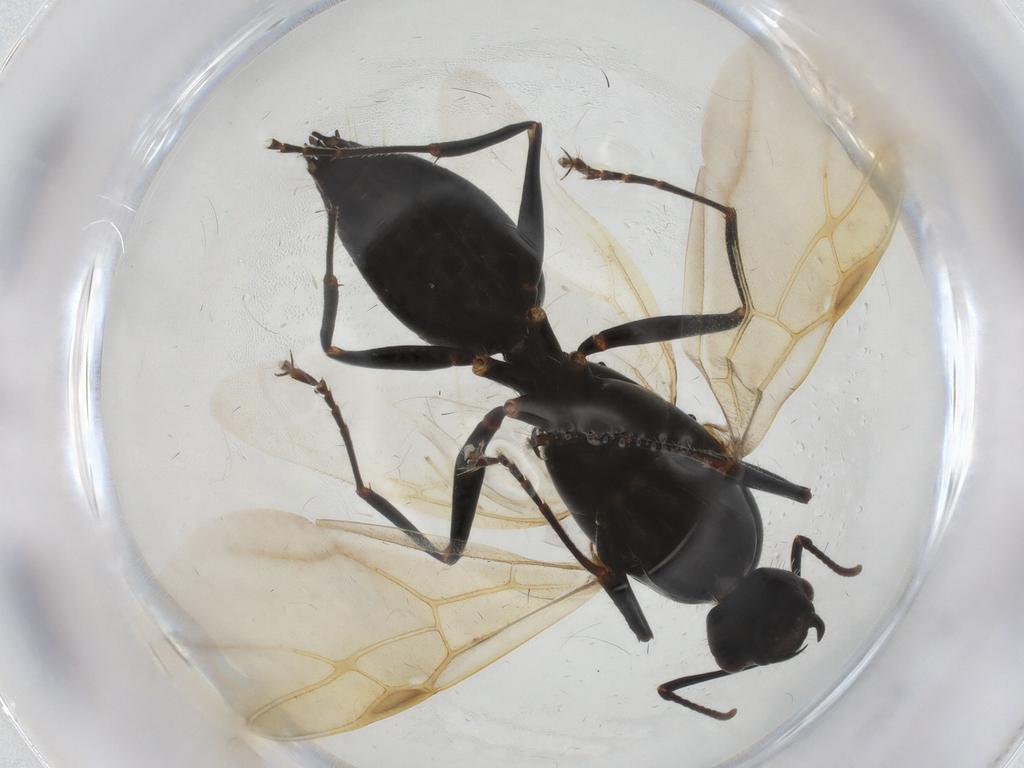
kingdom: Animalia
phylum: Arthropoda
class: Insecta
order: Hymenoptera
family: Formicidae
